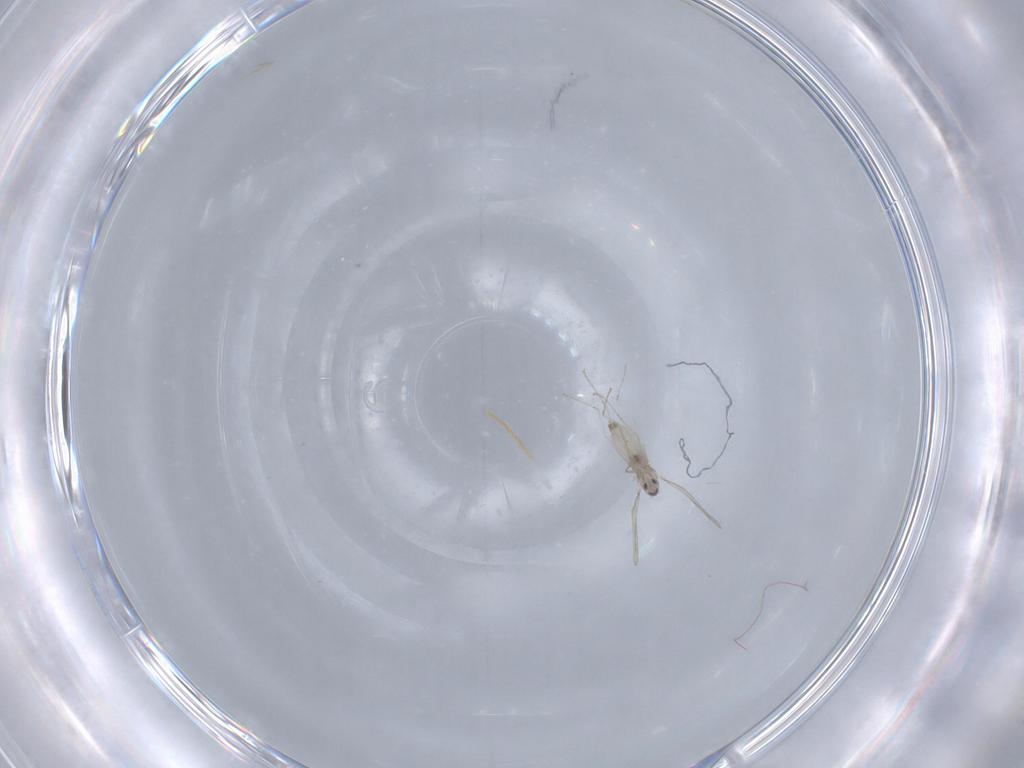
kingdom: Animalia
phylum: Arthropoda
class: Insecta
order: Diptera
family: Cecidomyiidae
